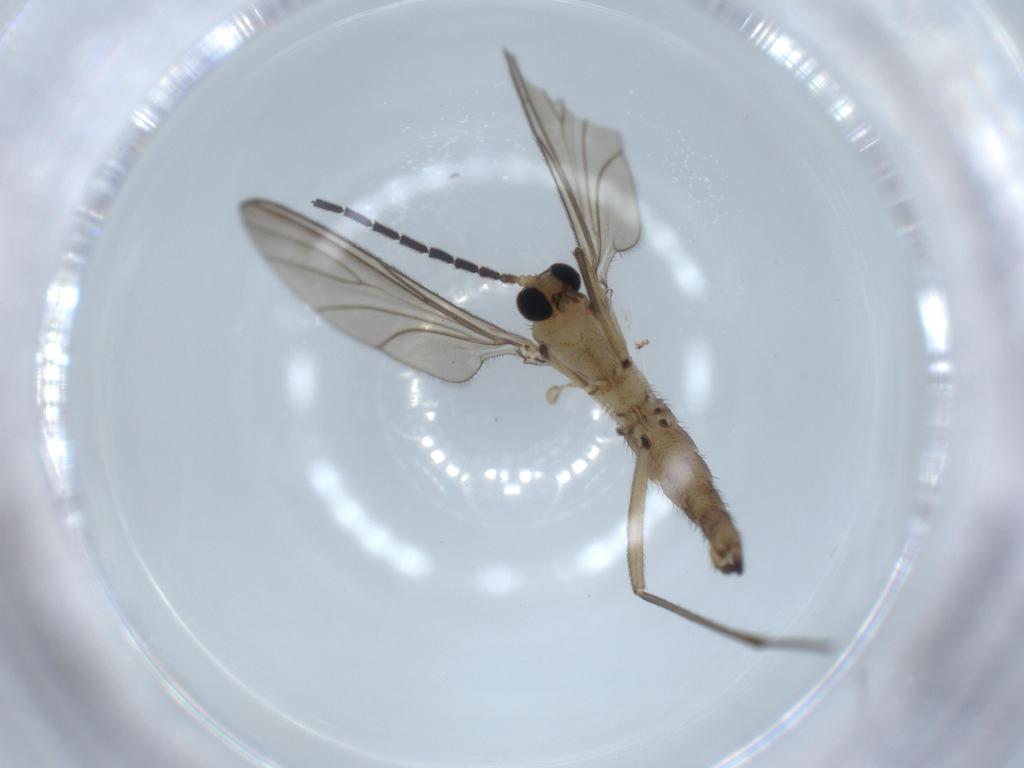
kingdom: Animalia
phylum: Arthropoda
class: Insecta
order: Diptera
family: Sciaridae
